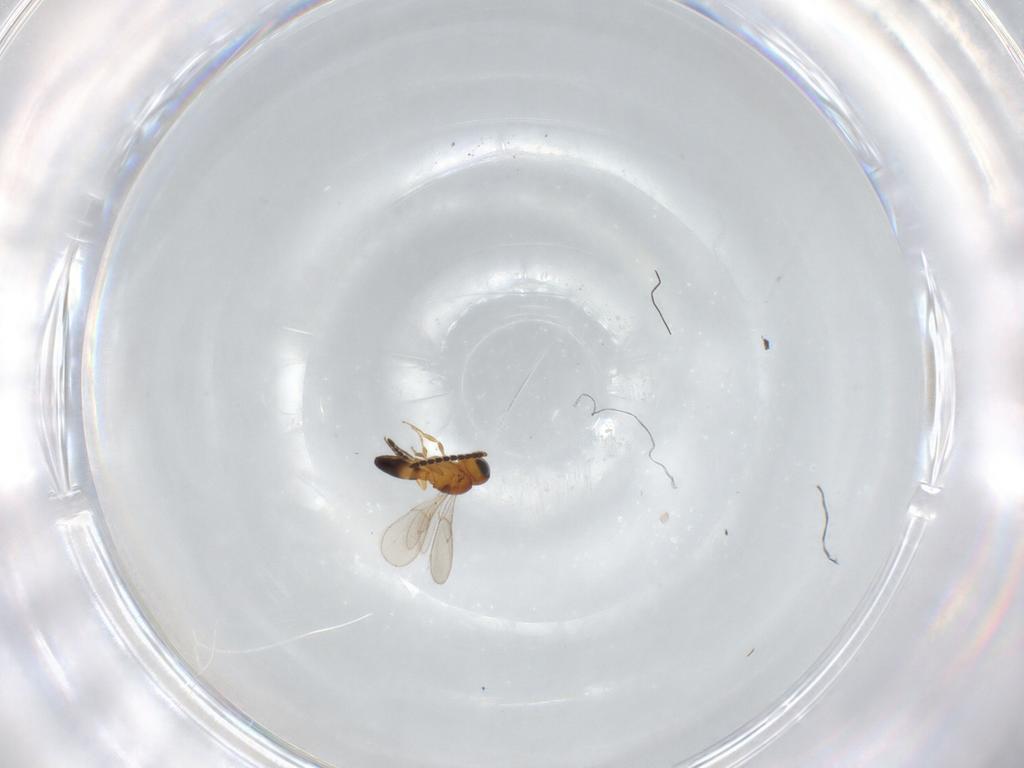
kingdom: Animalia
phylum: Arthropoda
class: Insecta
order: Hymenoptera
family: Scelionidae
